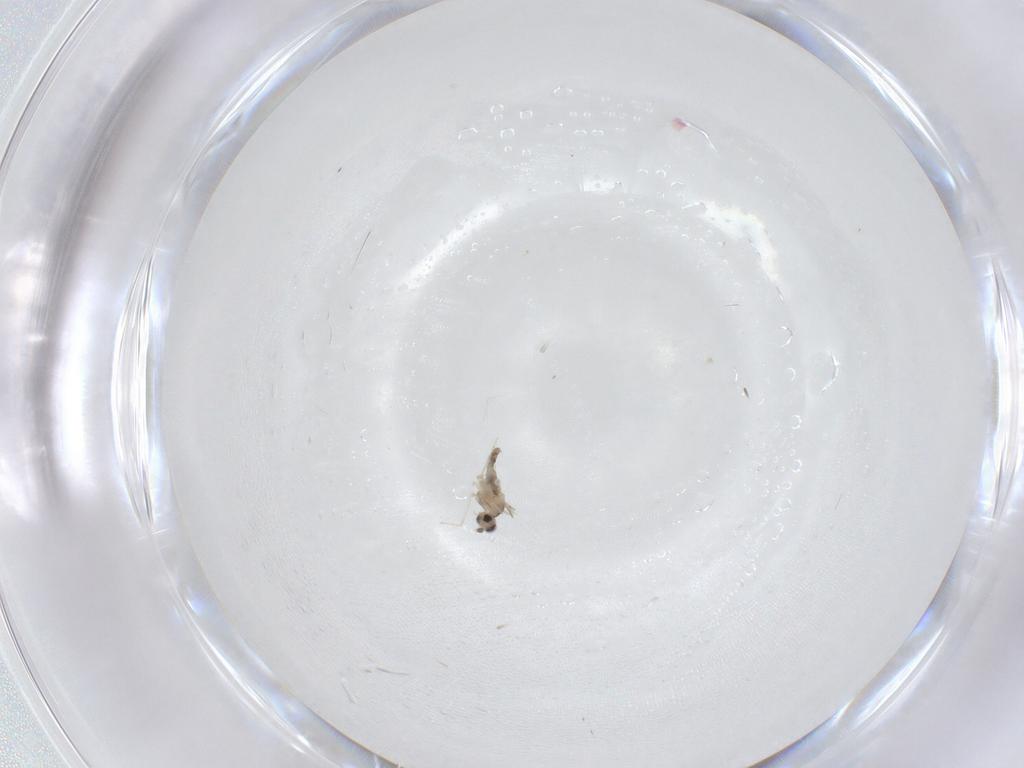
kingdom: Animalia
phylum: Arthropoda
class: Insecta
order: Diptera
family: Cecidomyiidae
